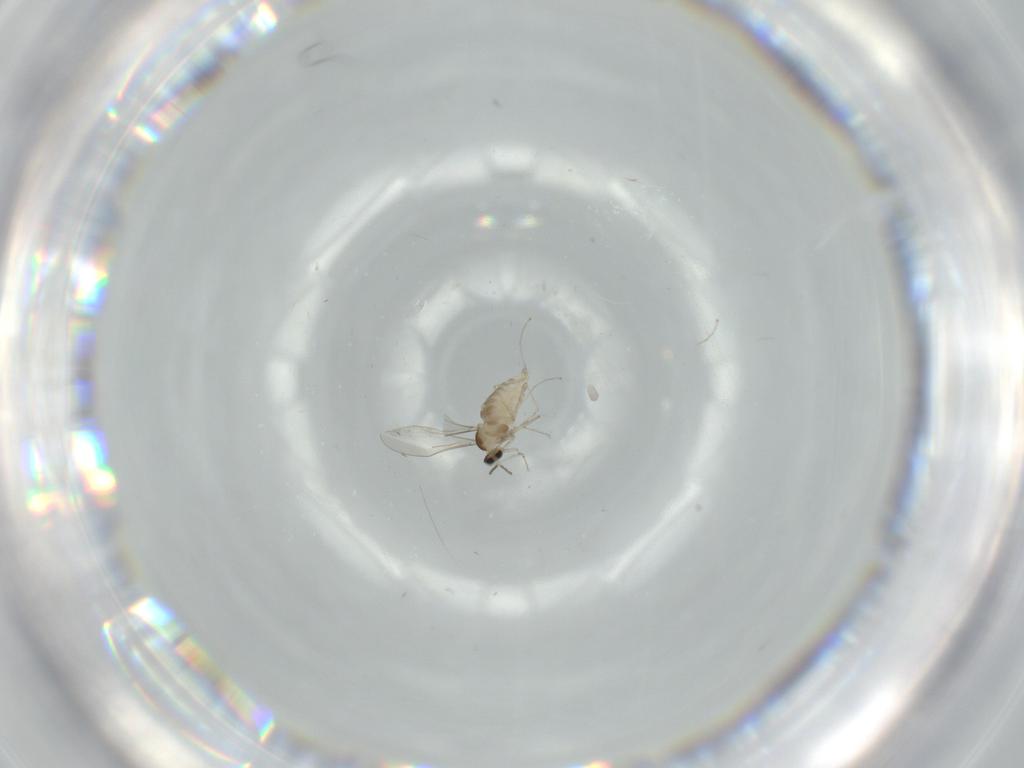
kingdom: Animalia
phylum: Arthropoda
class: Insecta
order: Diptera
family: Cecidomyiidae
